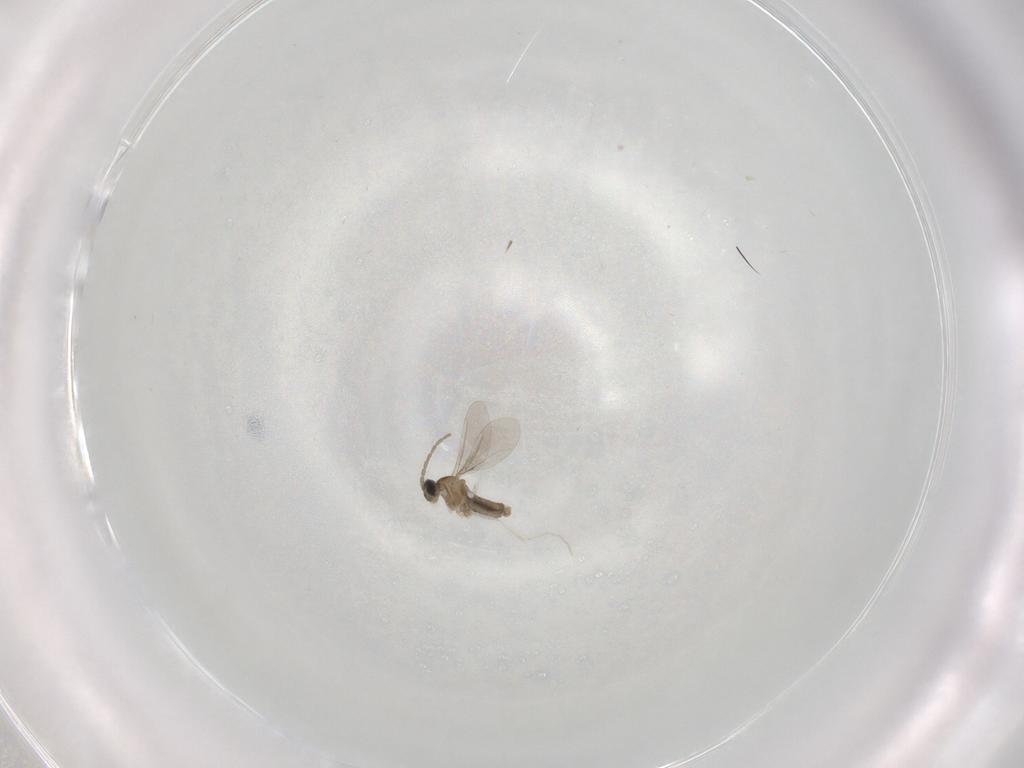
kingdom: Animalia
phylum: Arthropoda
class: Insecta
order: Diptera
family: Cecidomyiidae
